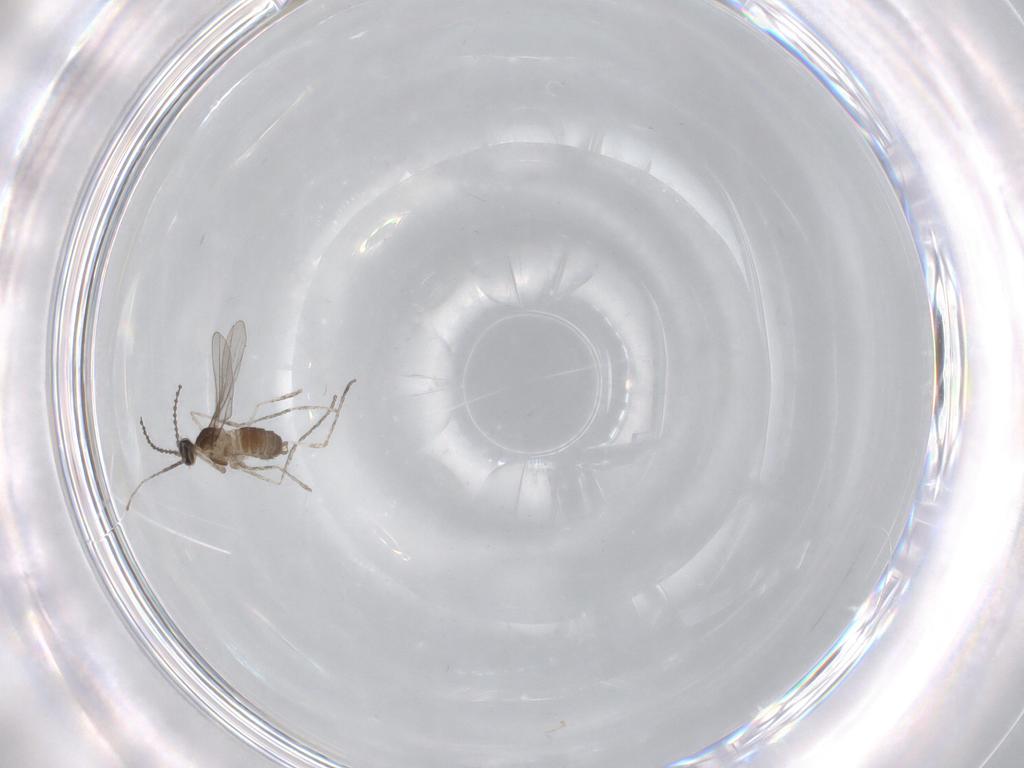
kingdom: Animalia
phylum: Arthropoda
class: Insecta
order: Diptera
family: Cecidomyiidae
